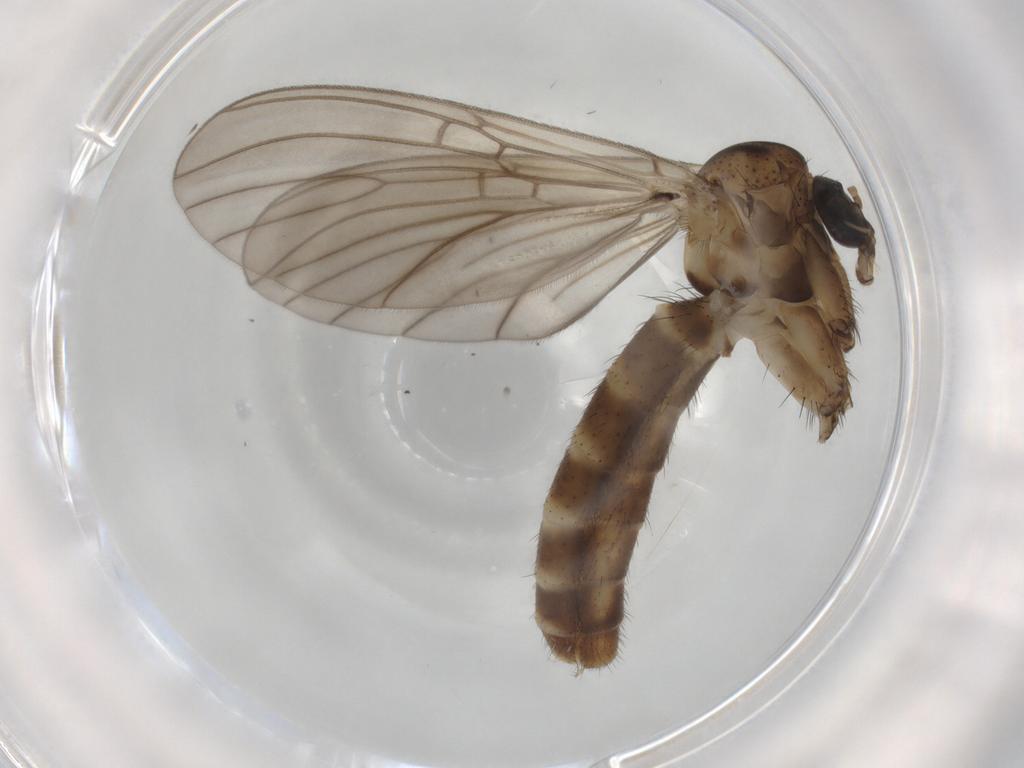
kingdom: Animalia
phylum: Arthropoda
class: Insecta
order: Diptera
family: Mycetophilidae
